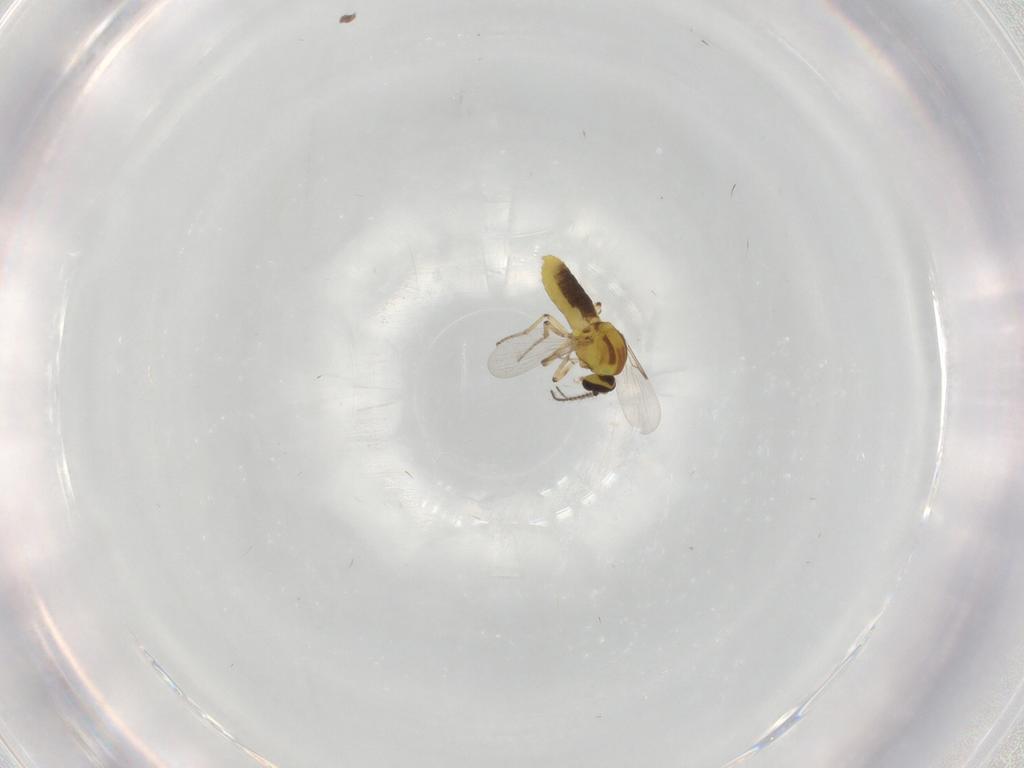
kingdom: Animalia
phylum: Arthropoda
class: Insecta
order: Diptera
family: Ceratopogonidae
